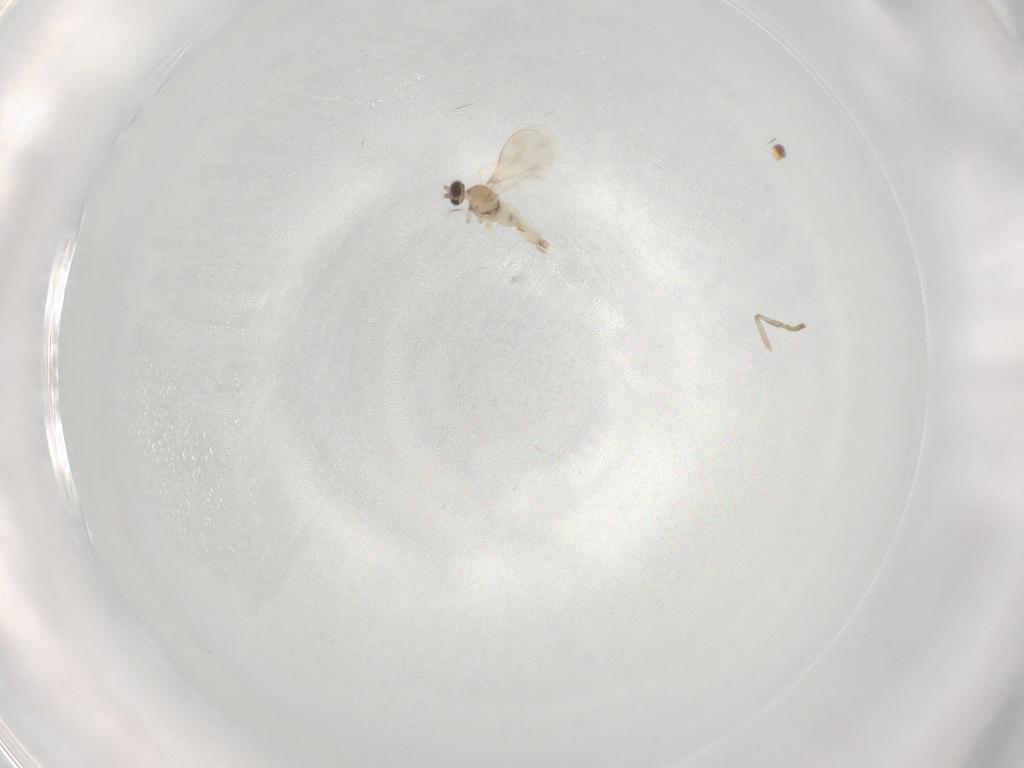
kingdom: Animalia
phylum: Arthropoda
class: Insecta
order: Diptera
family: Cecidomyiidae
